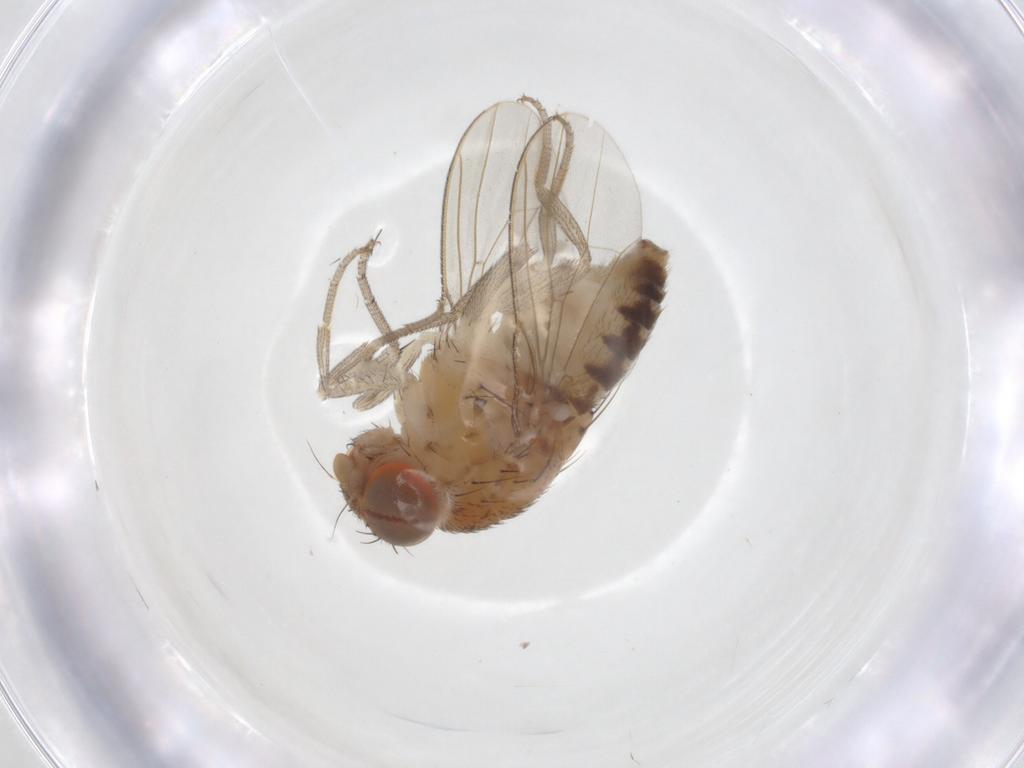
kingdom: Animalia
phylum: Arthropoda
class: Insecta
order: Diptera
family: Drosophilidae
